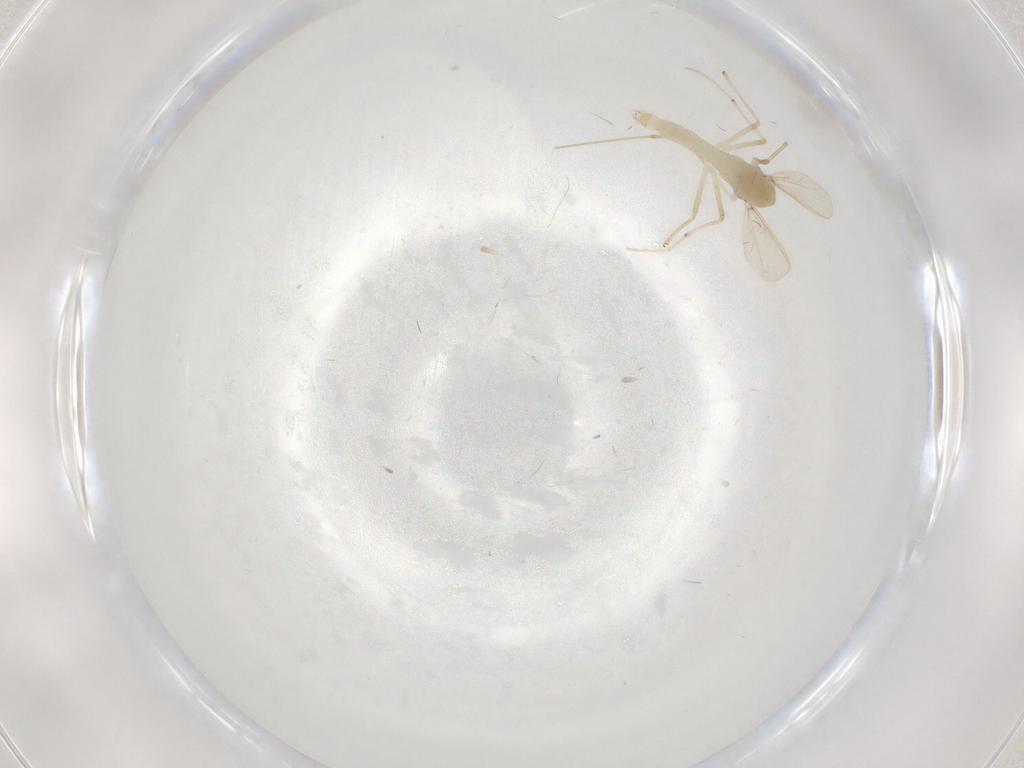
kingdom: Animalia
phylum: Arthropoda
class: Insecta
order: Diptera
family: Chironomidae
